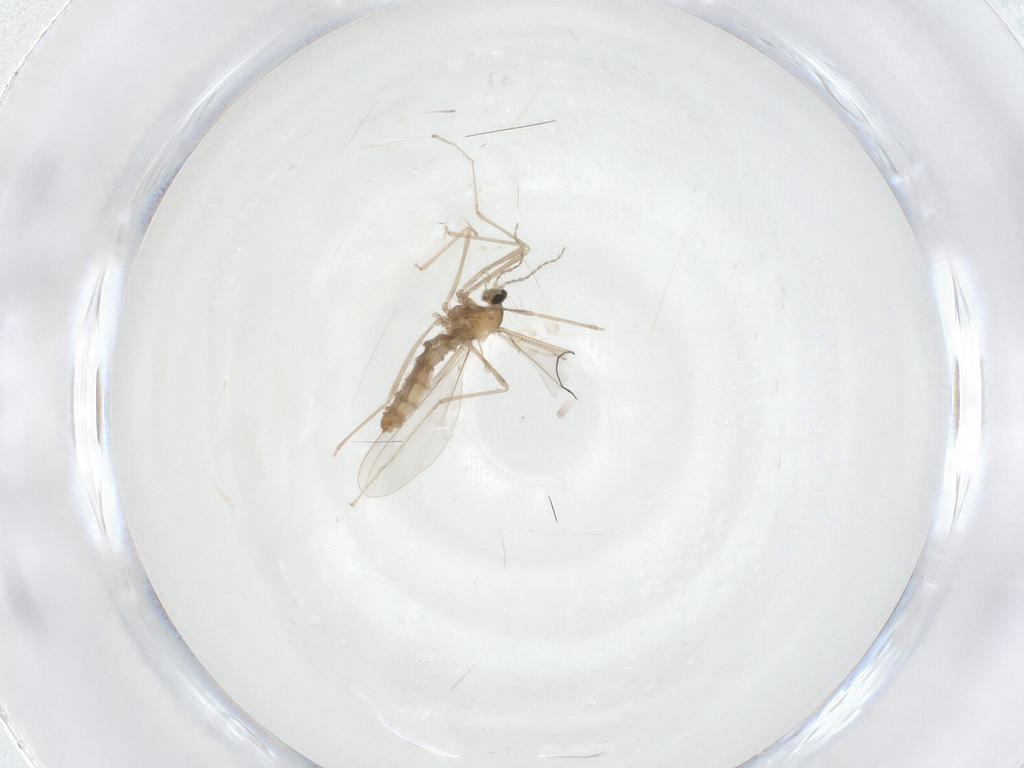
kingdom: Animalia
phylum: Arthropoda
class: Insecta
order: Diptera
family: Cecidomyiidae
